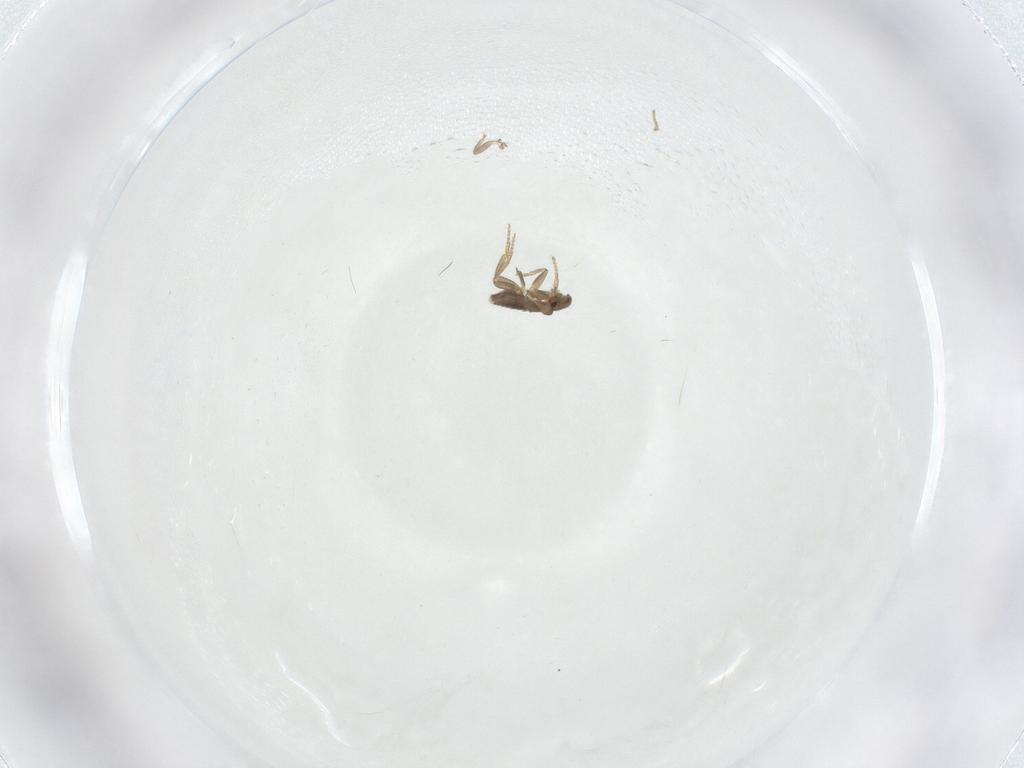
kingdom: Animalia
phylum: Arthropoda
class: Insecta
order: Diptera
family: Phoridae
